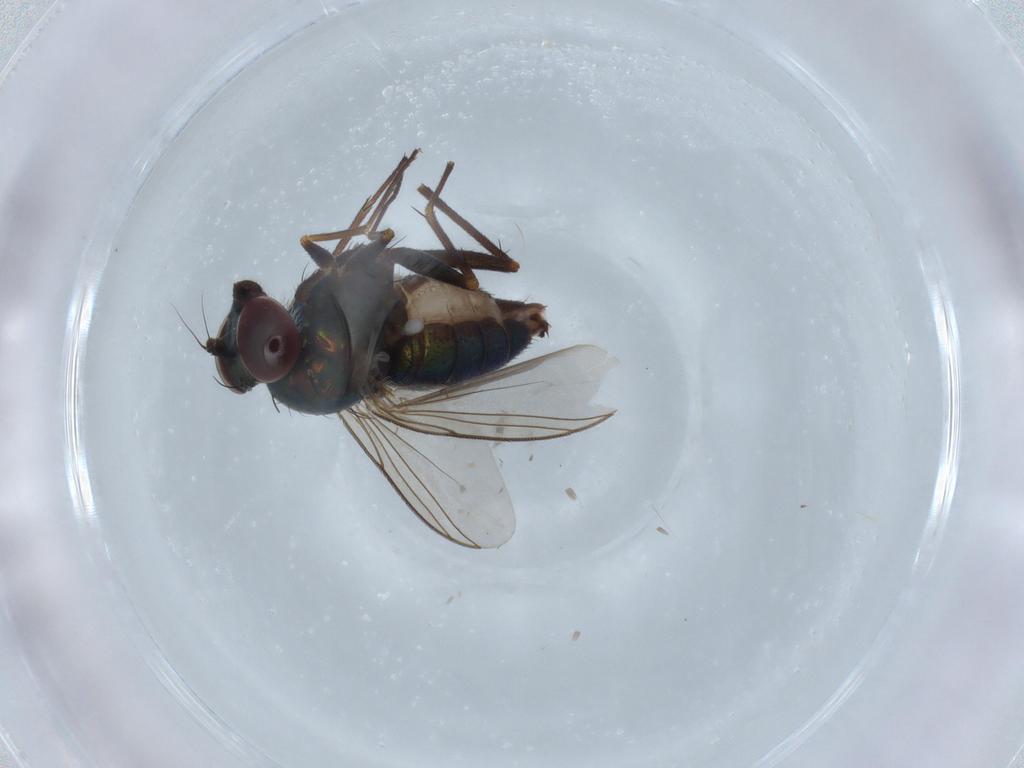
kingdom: Animalia
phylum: Arthropoda
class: Insecta
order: Diptera
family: Dolichopodidae
